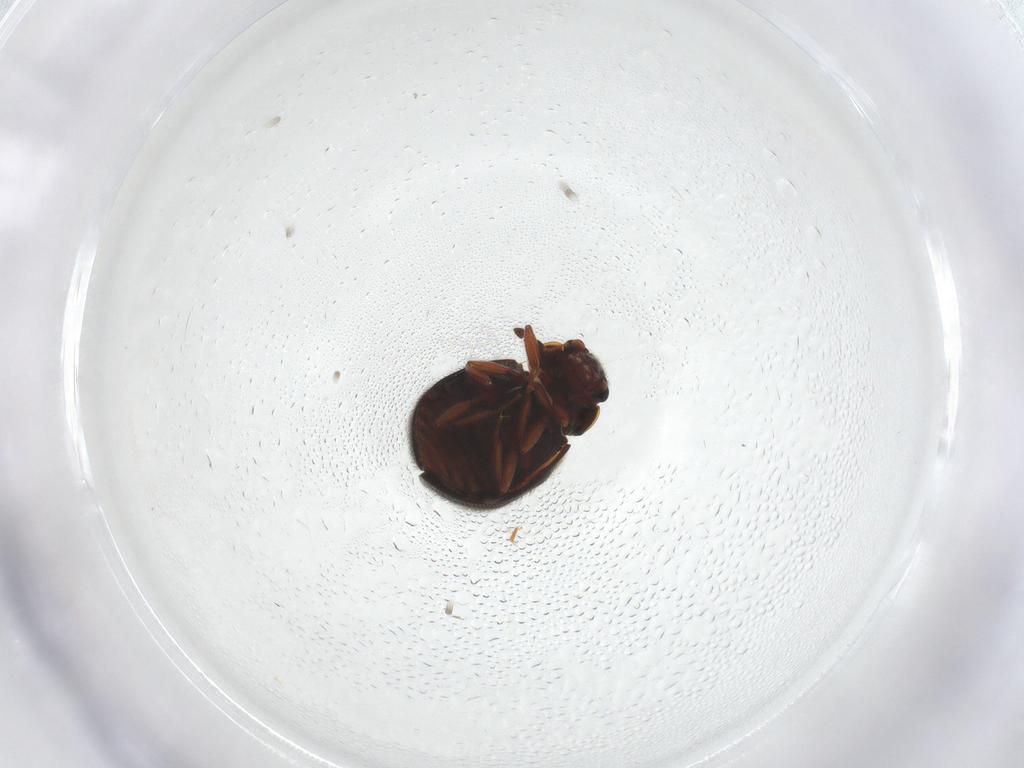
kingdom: Animalia
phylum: Arthropoda
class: Insecta
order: Coleoptera
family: Sphindidae
